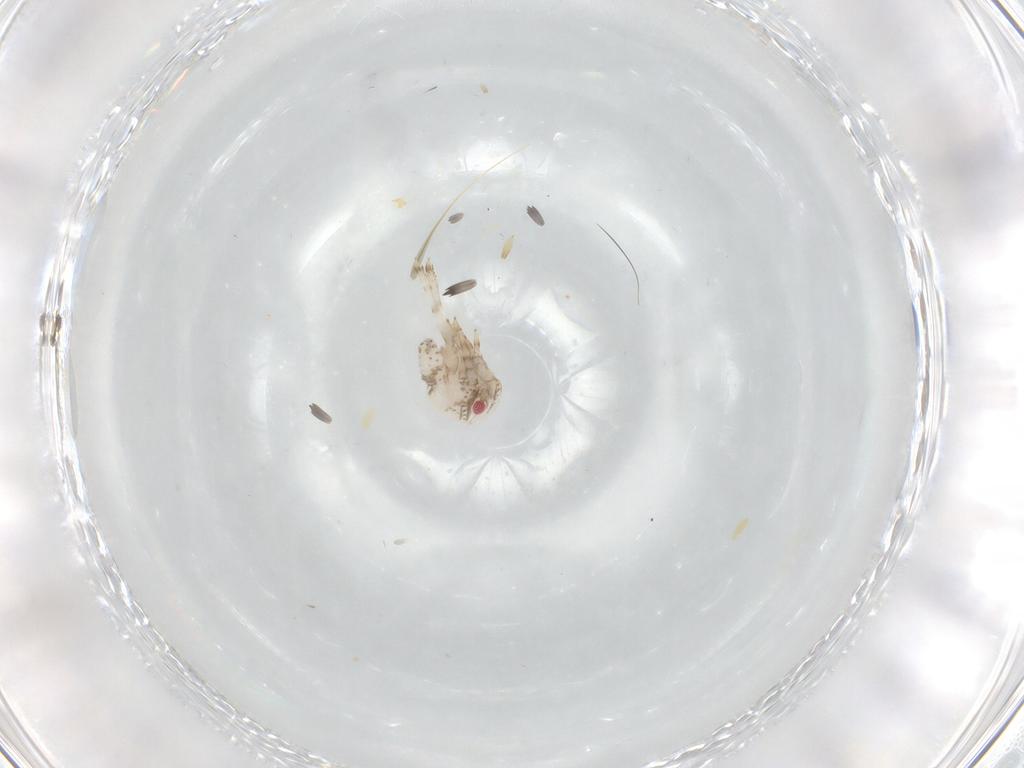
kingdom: Animalia
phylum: Arthropoda
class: Insecta
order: Hemiptera
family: Acanaloniidae
